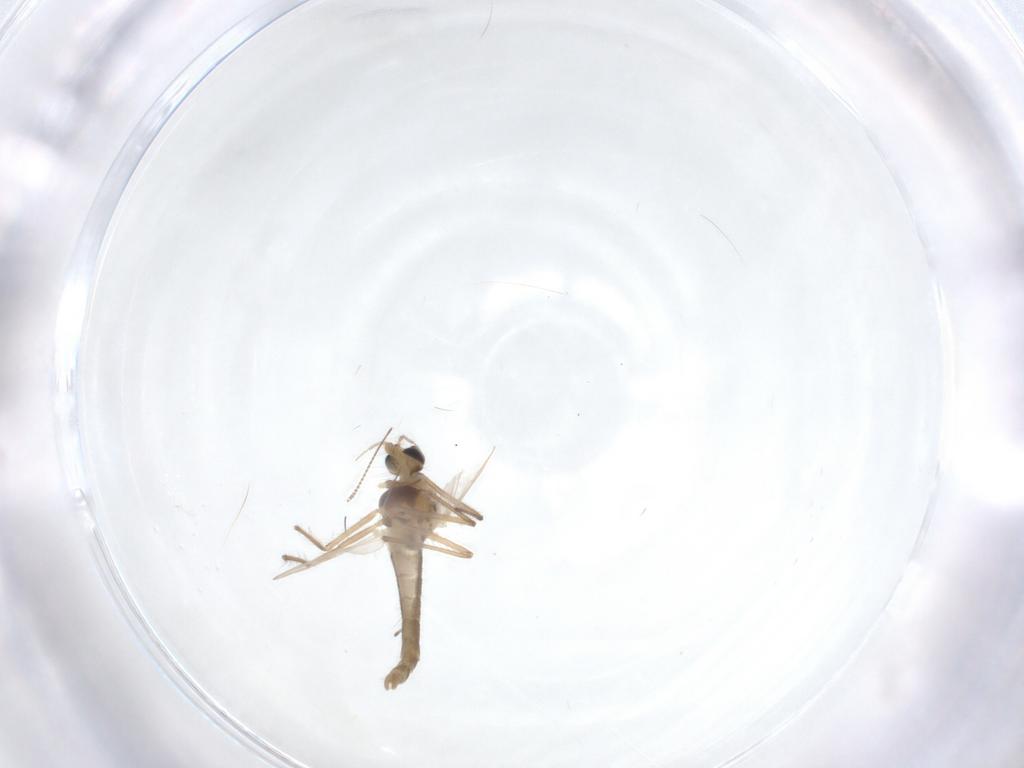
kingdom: Animalia
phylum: Arthropoda
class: Insecta
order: Diptera
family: Chironomidae
